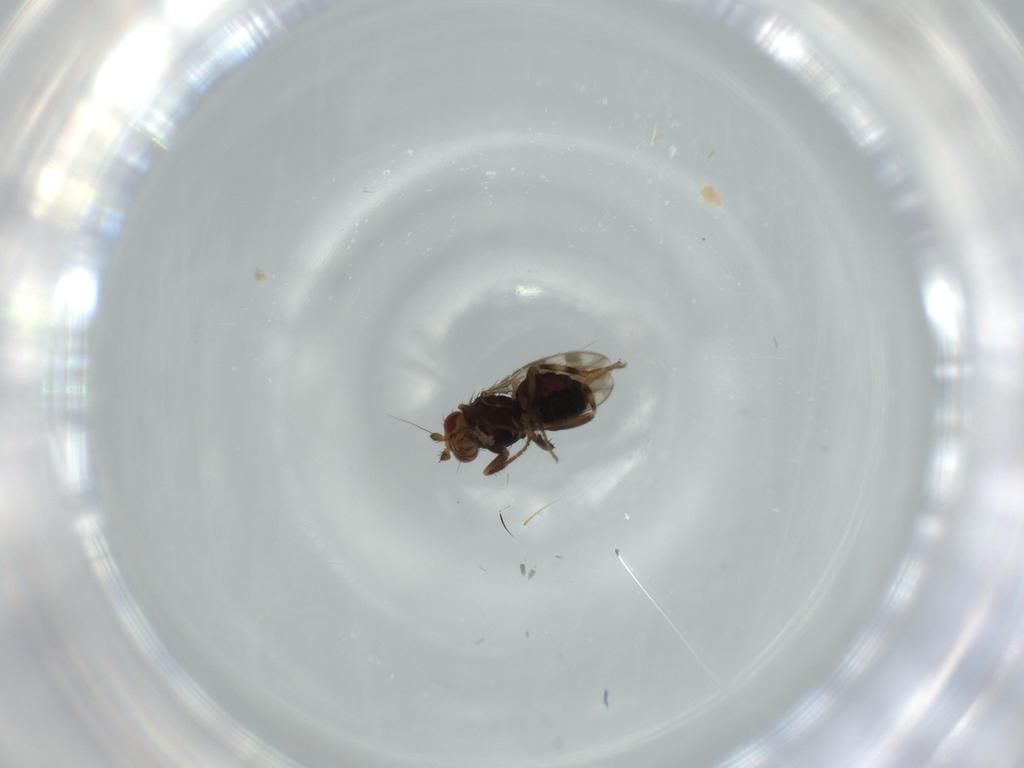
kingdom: Animalia
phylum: Arthropoda
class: Insecta
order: Diptera
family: Sphaeroceridae
